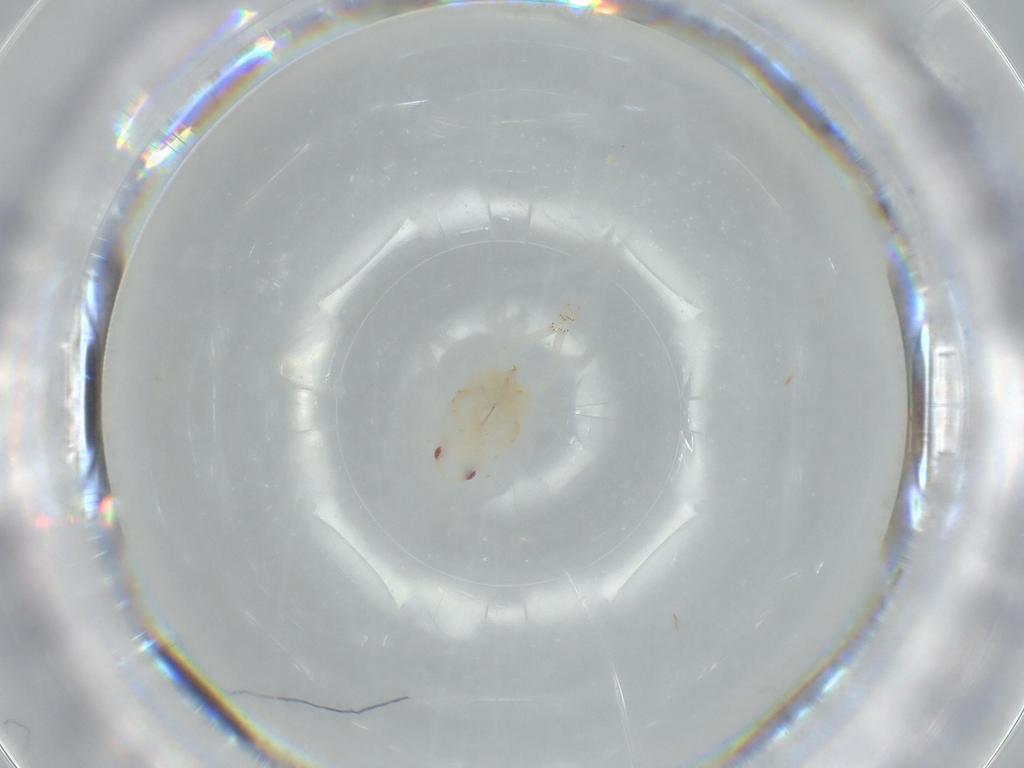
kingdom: Animalia
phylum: Arthropoda
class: Insecta
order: Hemiptera
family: Flatidae
